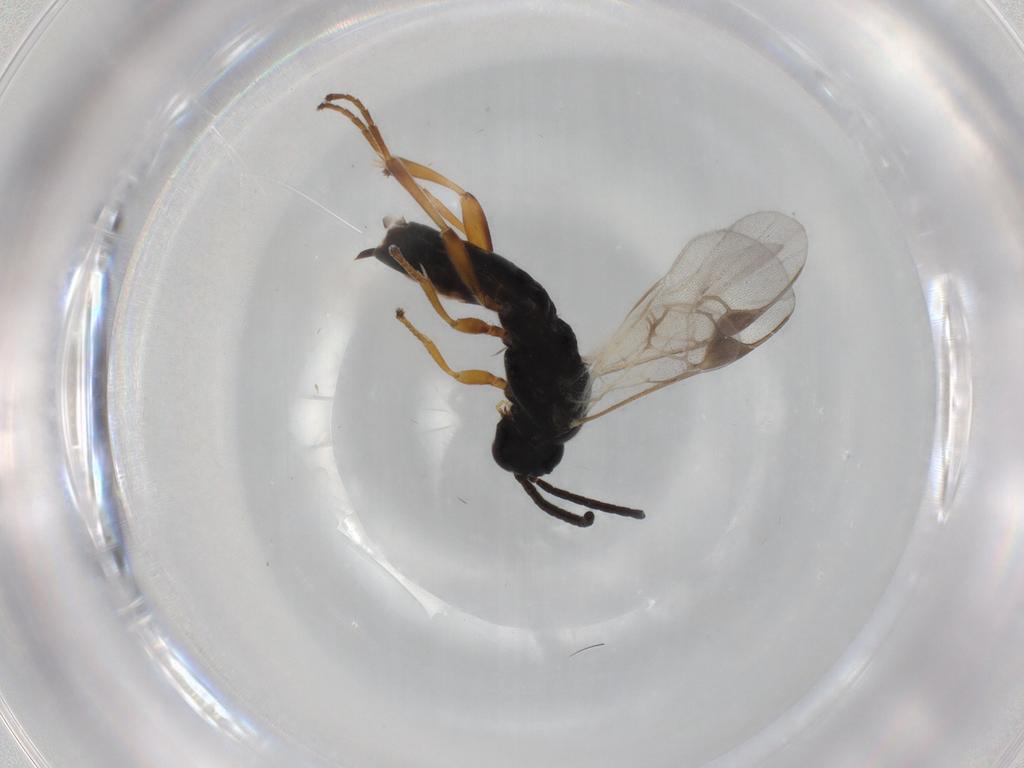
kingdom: Animalia
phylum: Arthropoda
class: Insecta
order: Hymenoptera
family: Braconidae
